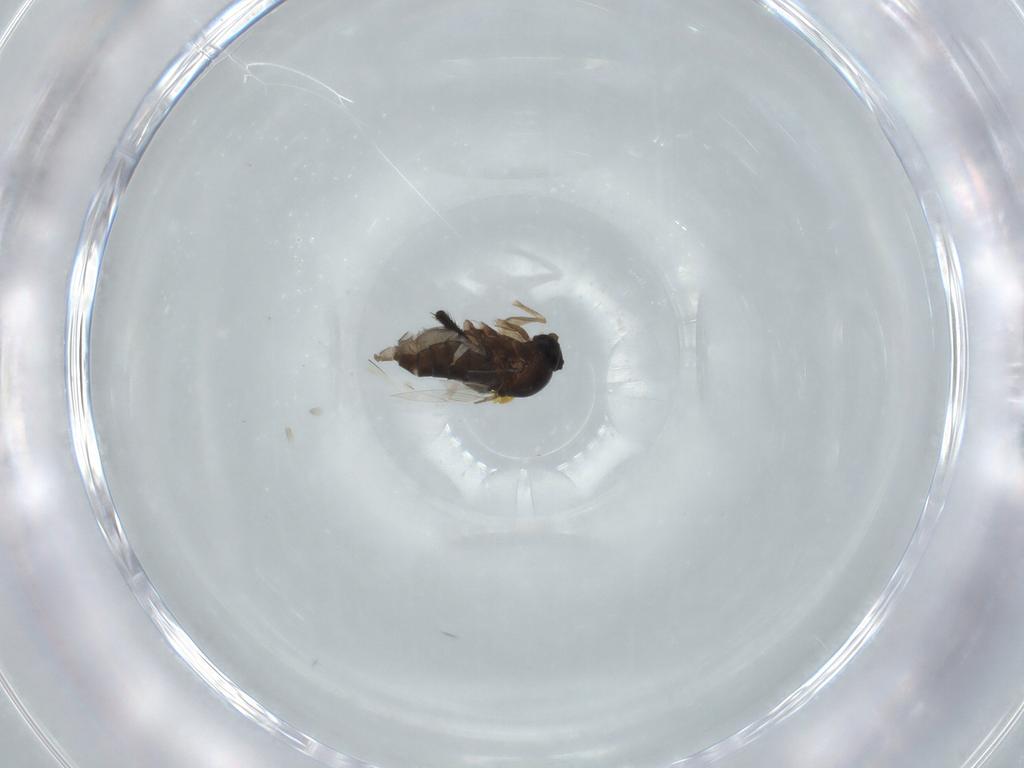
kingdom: Animalia
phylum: Arthropoda
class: Insecta
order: Diptera
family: Phoridae
